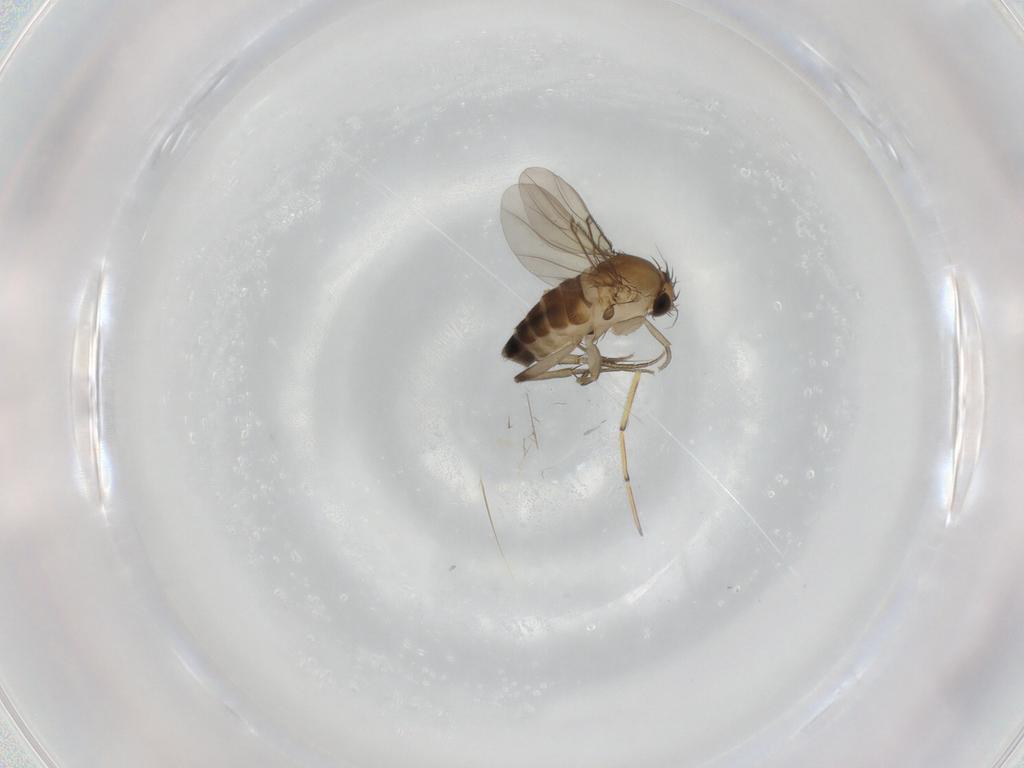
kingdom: Animalia
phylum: Arthropoda
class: Insecta
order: Diptera
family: Phoridae
